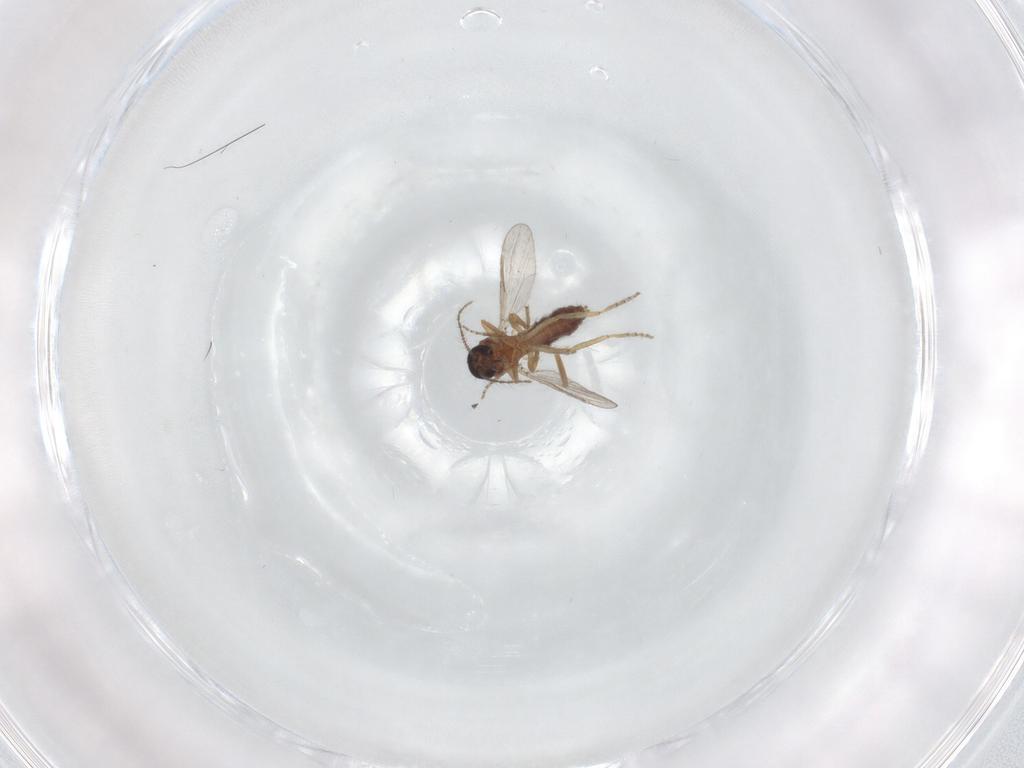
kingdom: Animalia
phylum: Arthropoda
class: Insecta
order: Diptera
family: Ceratopogonidae
